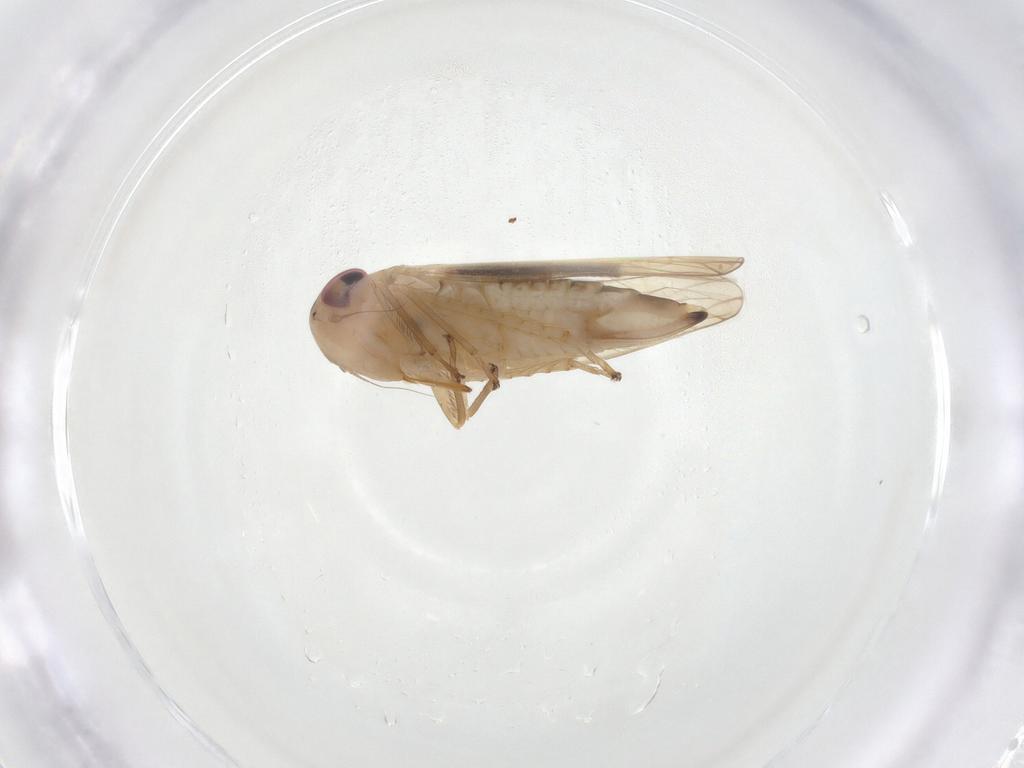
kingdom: Animalia
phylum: Arthropoda
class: Insecta
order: Hemiptera
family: Cicadellidae
